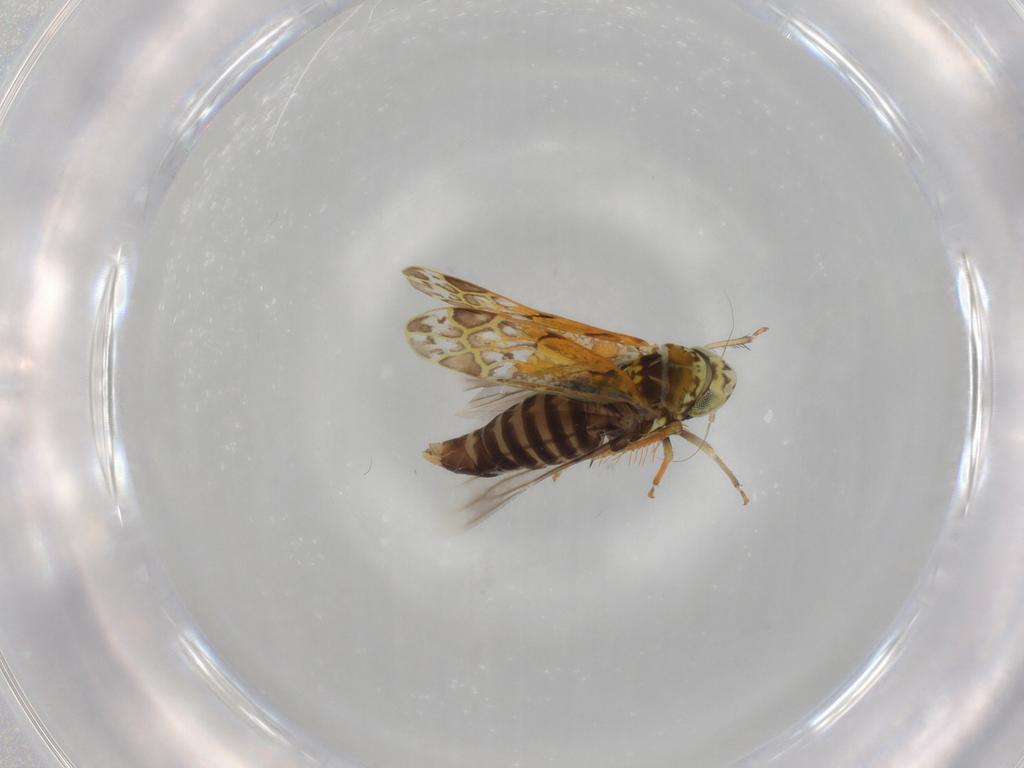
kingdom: Animalia
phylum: Arthropoda
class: Insecta
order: Hemiptera
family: Cicadellidae
